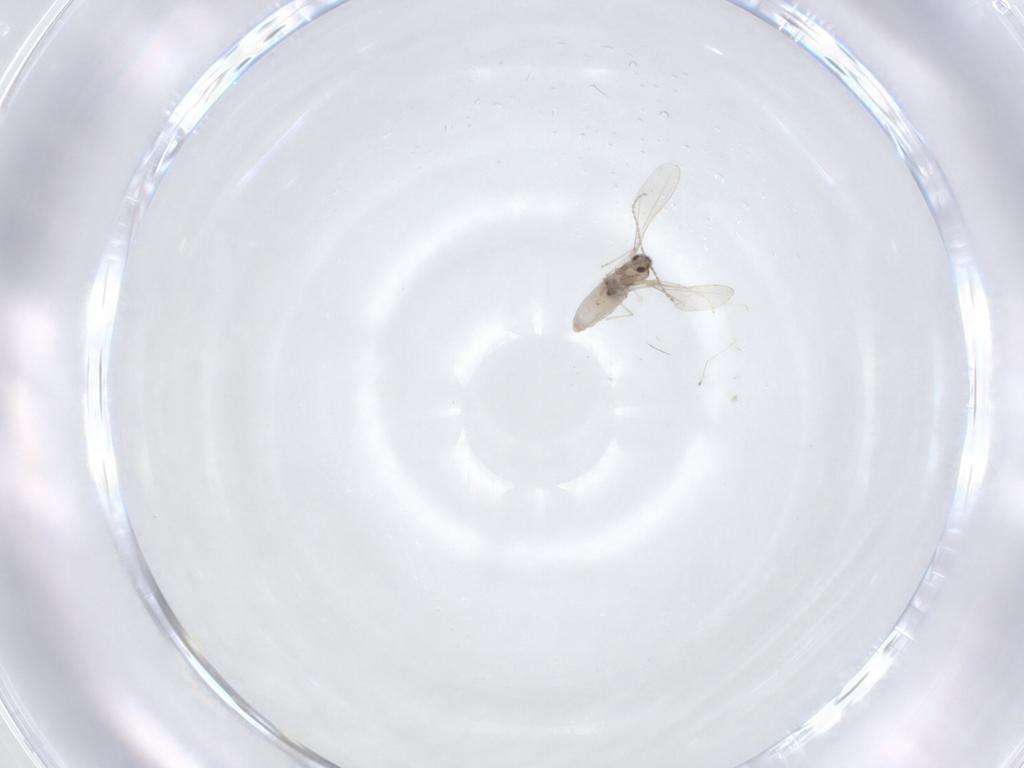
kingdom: Animalia
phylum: Arthropoda
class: Insecta
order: Diptera
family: Cecidomyiidae
